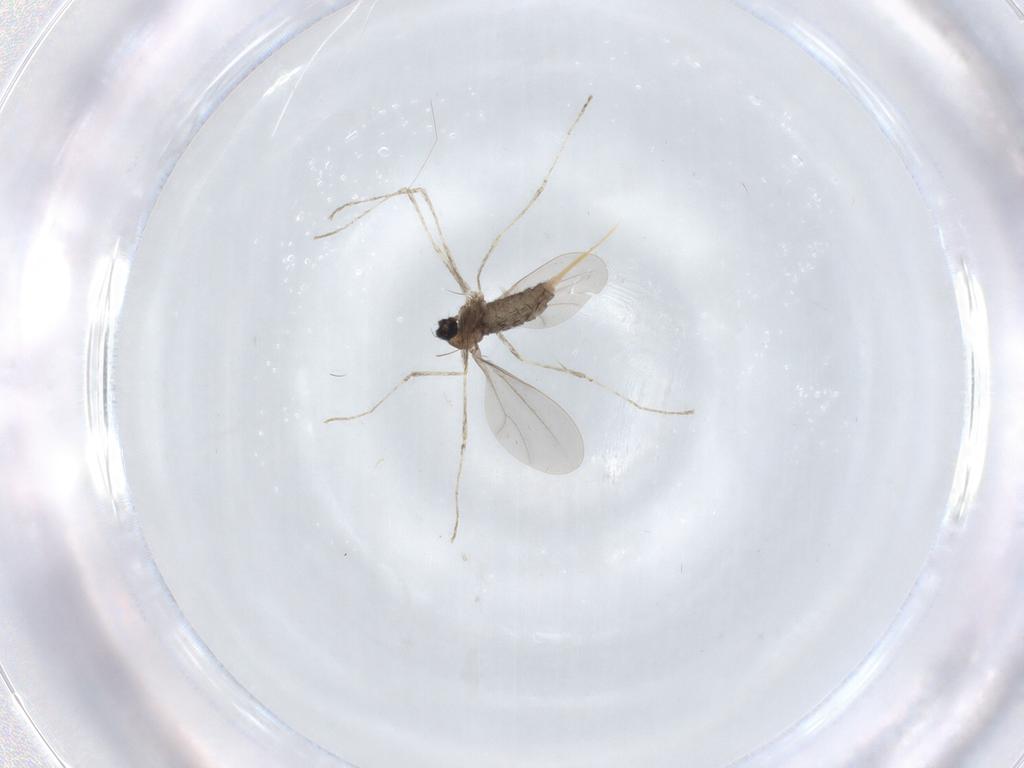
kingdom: Animalia
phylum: Arthropoda
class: Insecta
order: Diptera
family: Cecidomyiidae
